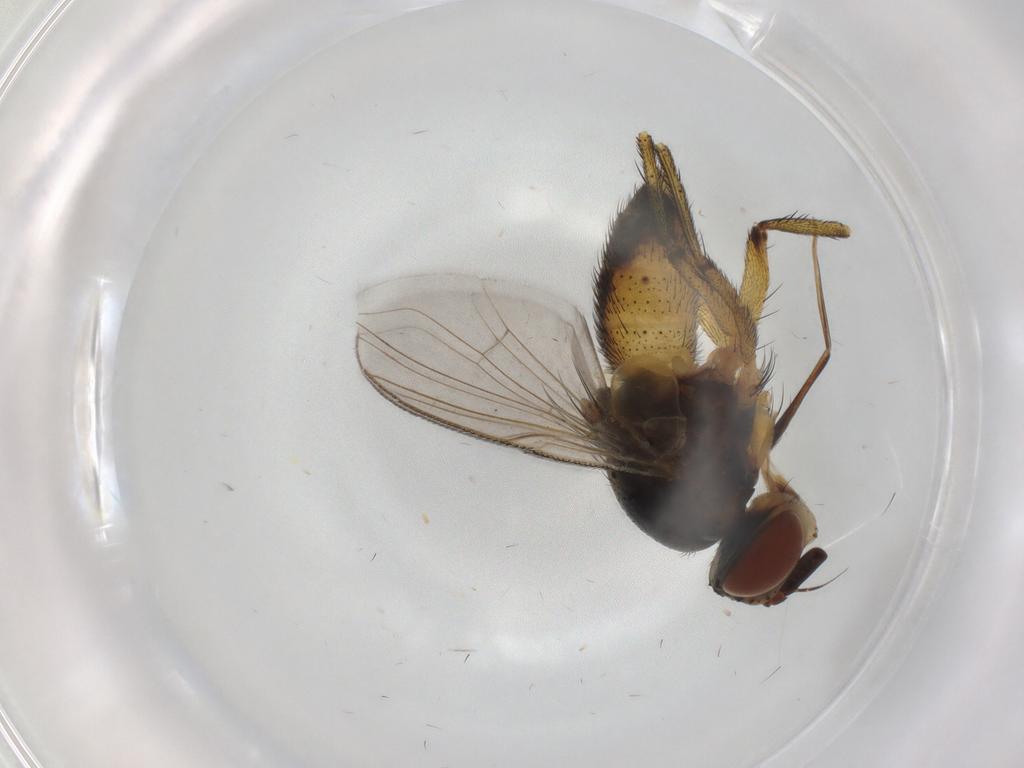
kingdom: Animalia
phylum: Arthropoda
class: Insecta
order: Diptera
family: Tachinidae
